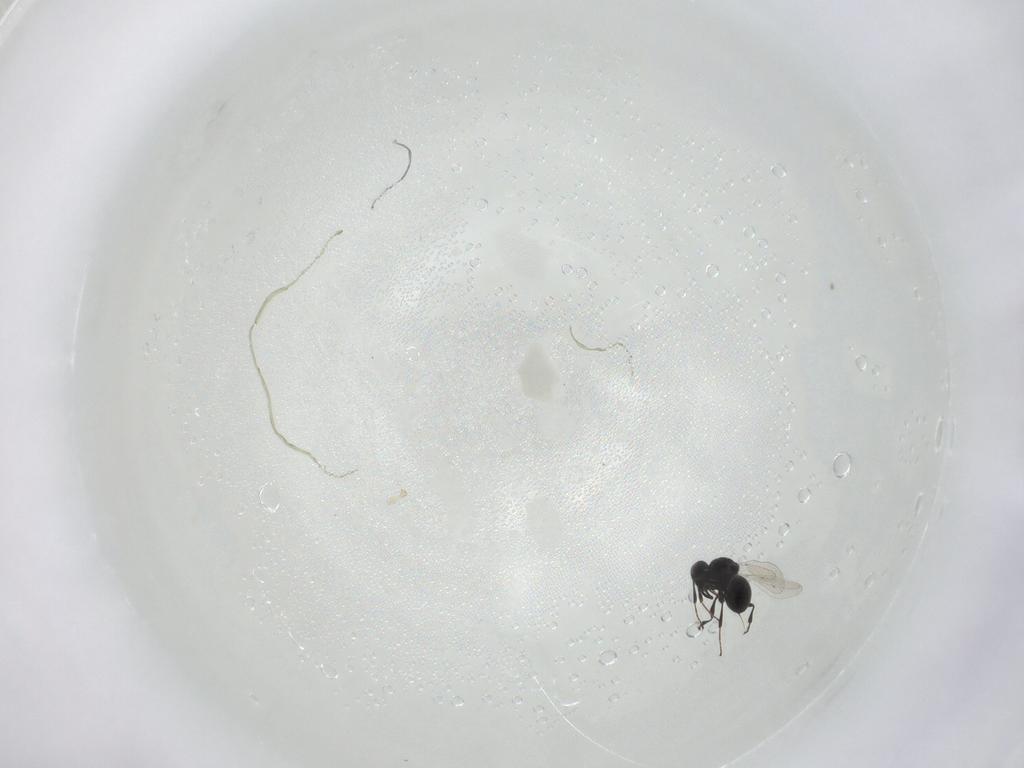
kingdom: Animalia
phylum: Arthropoda
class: Insecta
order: Hymenoptera
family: Platygastridae
